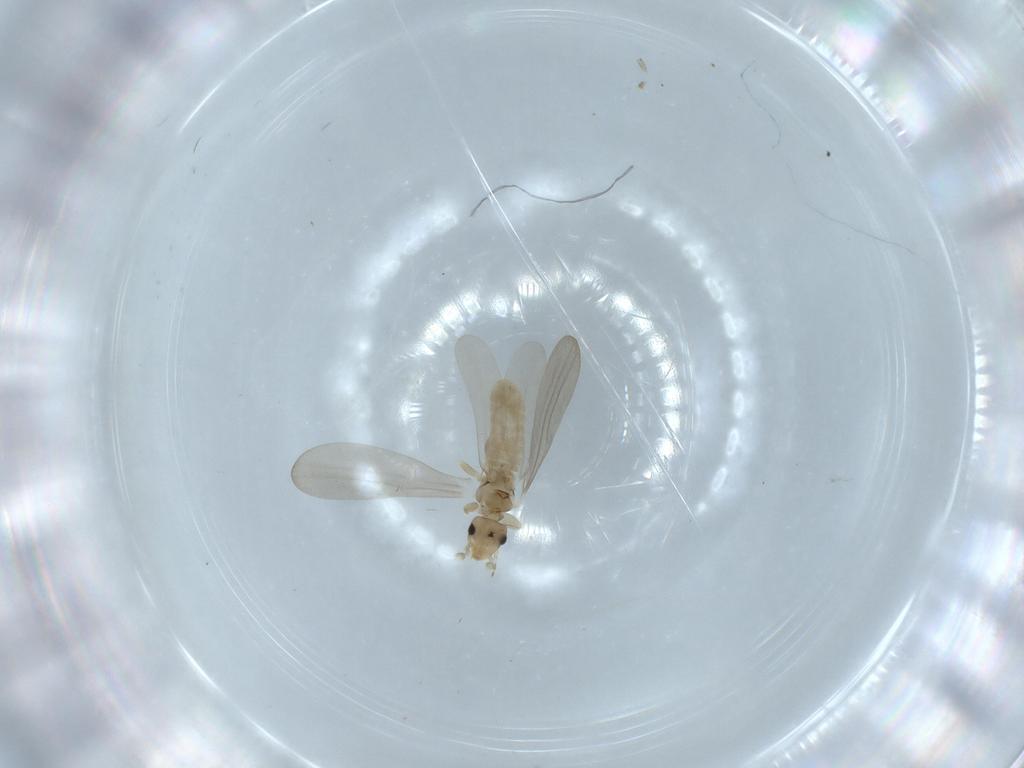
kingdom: Animalia
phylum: Arthropoda
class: Insecta
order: Psocodea
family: Liposcelididae
